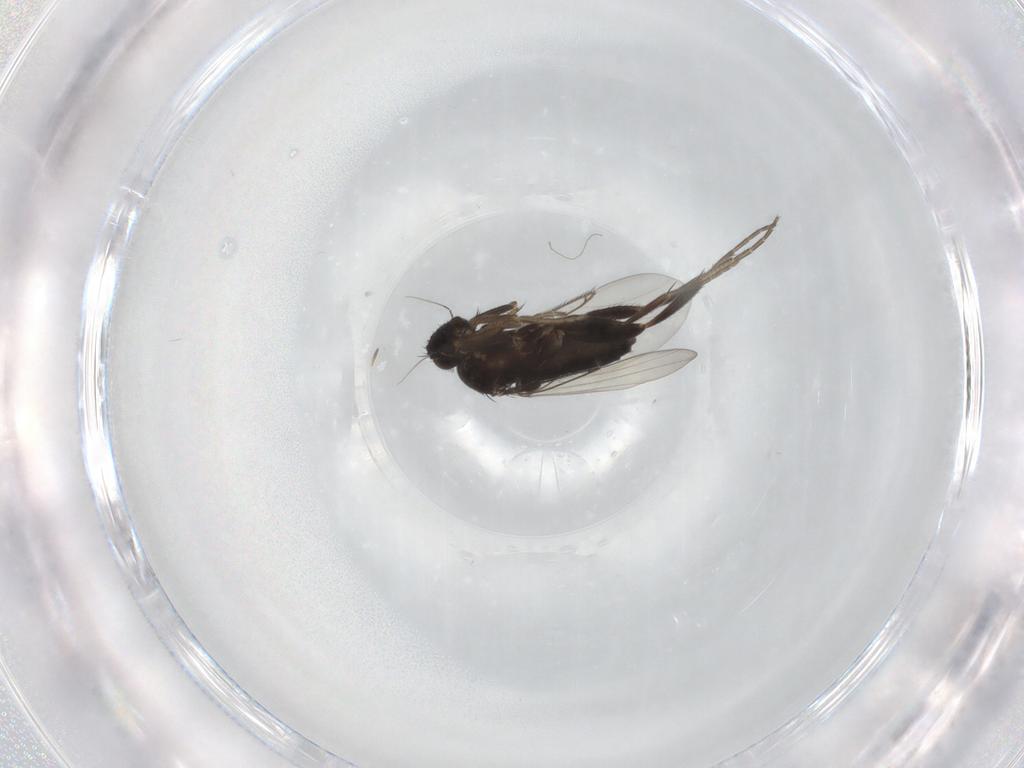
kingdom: Animalia
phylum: Arthropoda
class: Insecta
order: Diptera
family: Phoridae
